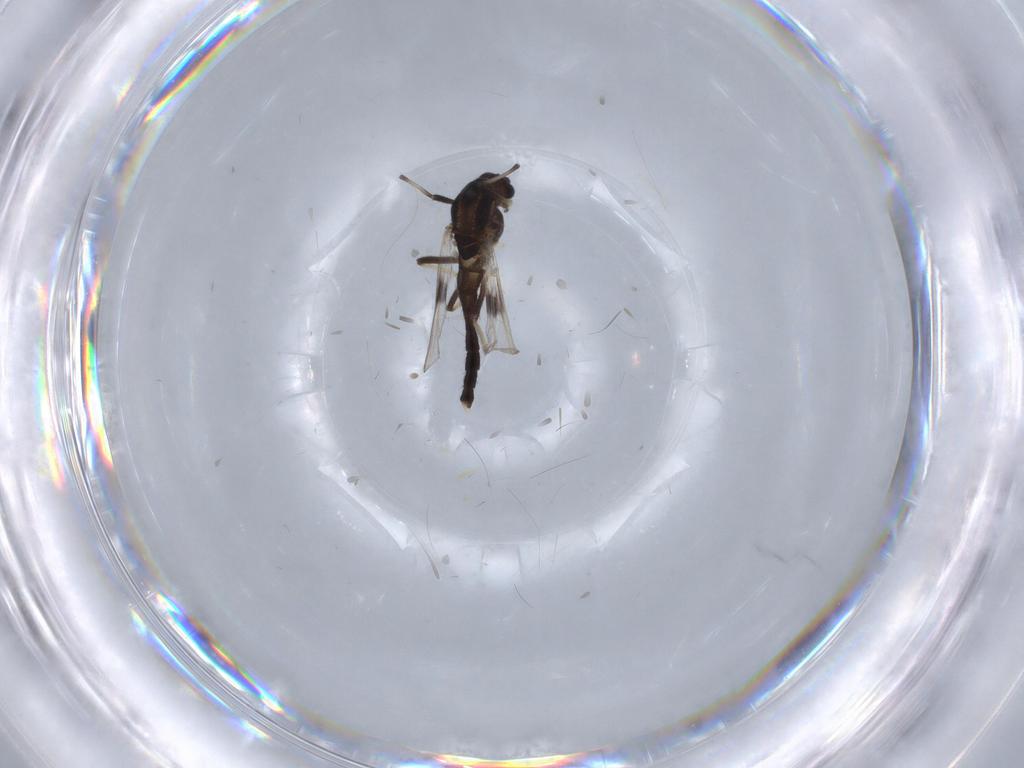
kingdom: Animalia
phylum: Arthropoda
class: Insecta
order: Diptera
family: Chironomidae
